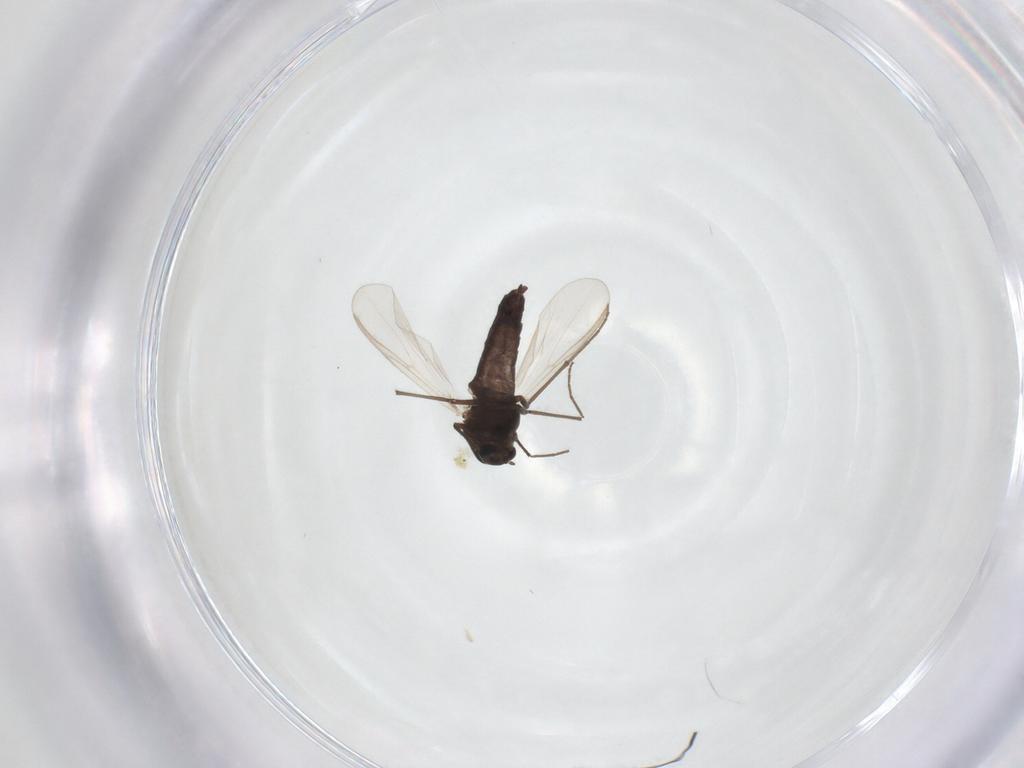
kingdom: Animalia
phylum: Arthropoda
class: Insecta
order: Diptera
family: Chironomidae
